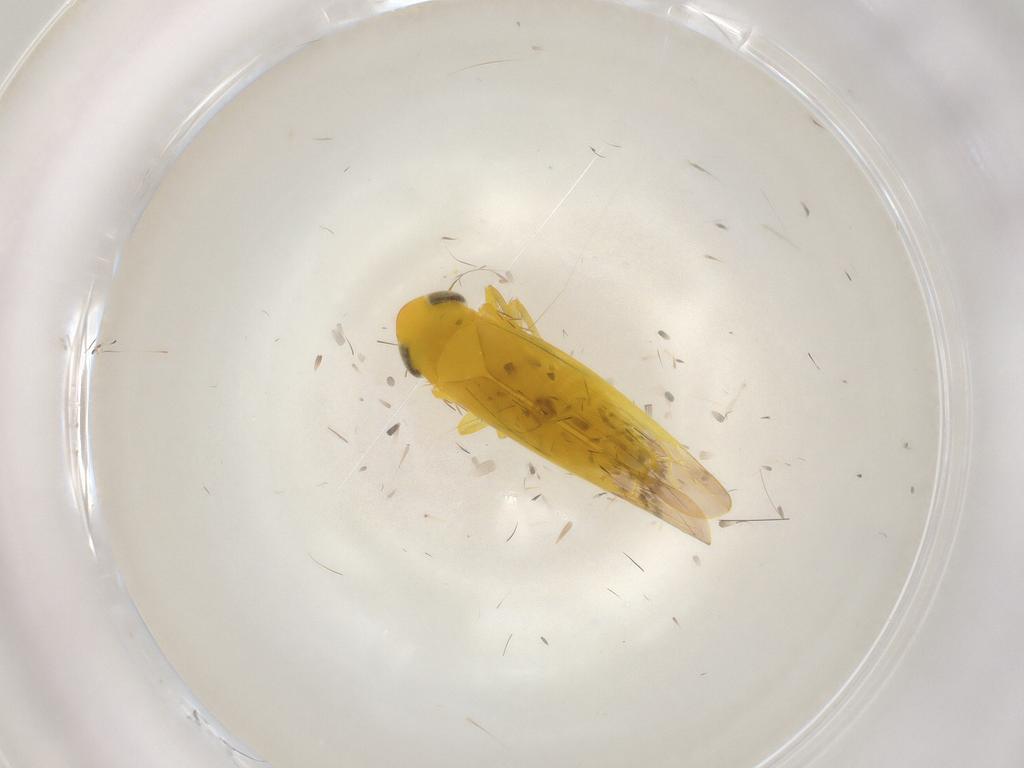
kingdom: Animalia
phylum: Arthropoda
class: Insecta
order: Hemiptera
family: Cicadellidae
